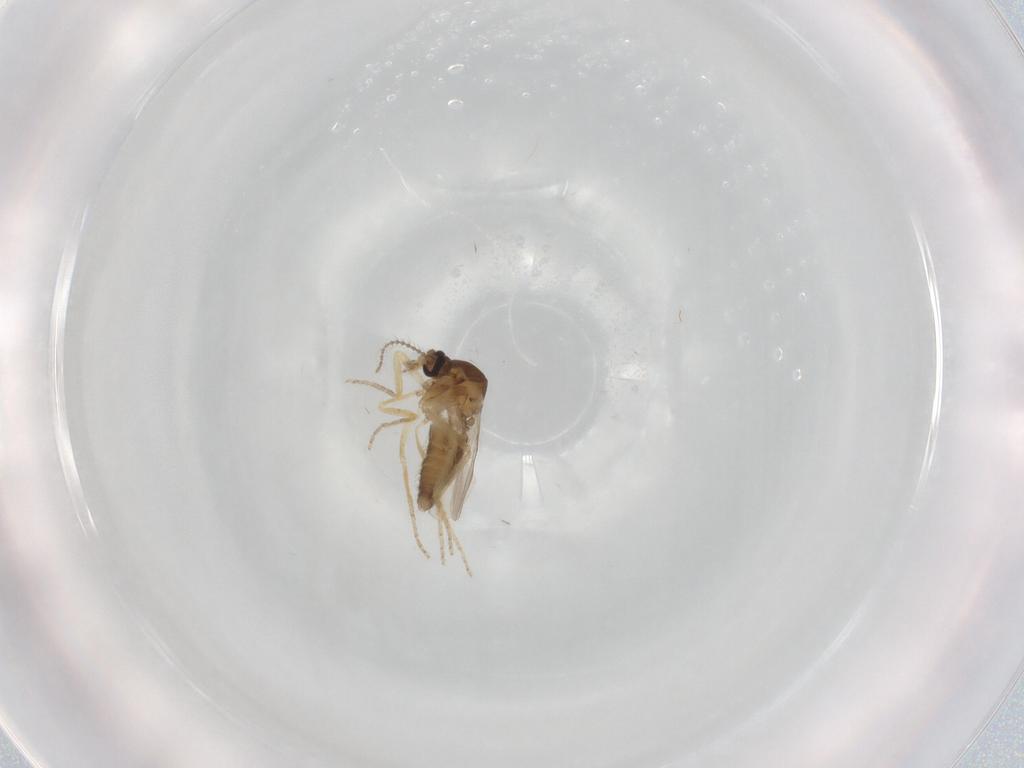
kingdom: Animalia
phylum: Arthropoda
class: Insecta
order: Diptera
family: Ceratopogonidae
